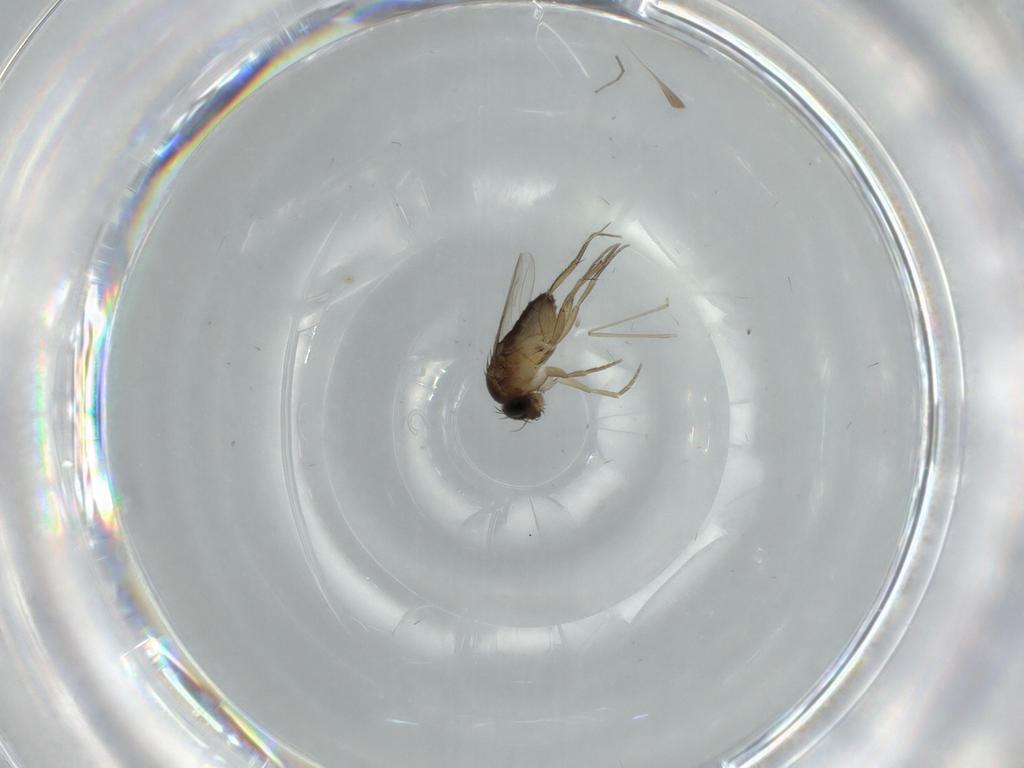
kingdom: Animalia
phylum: Arthropoda
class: Insecta
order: Diptera
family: Phoridae
